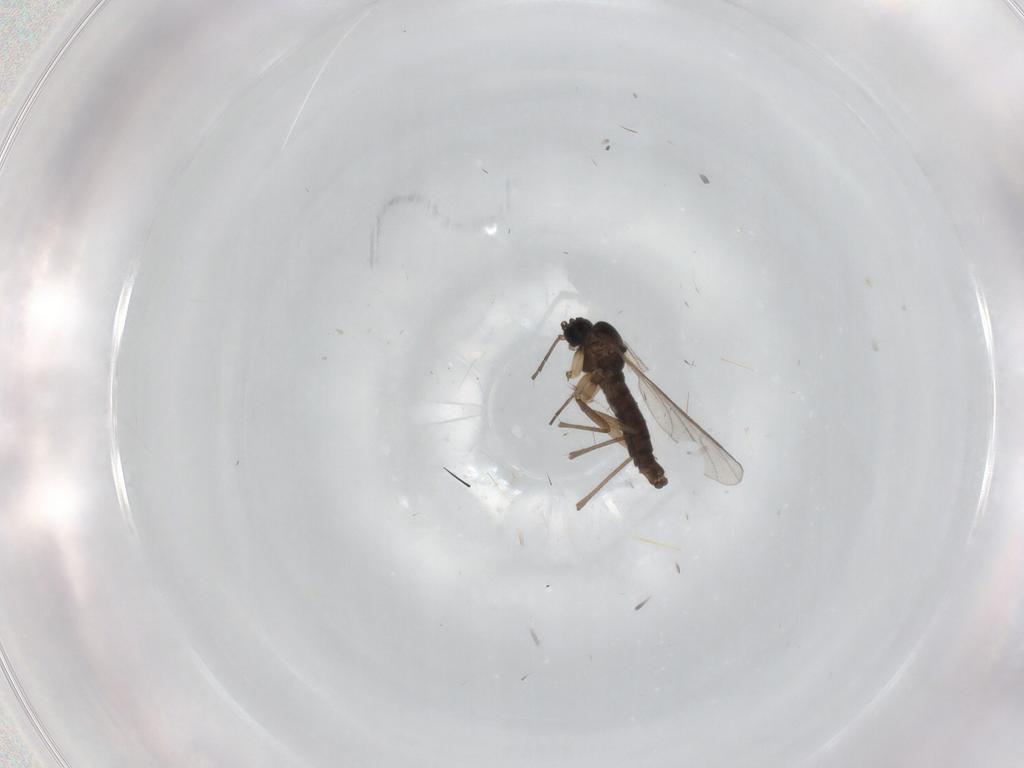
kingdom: Animalia
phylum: Arthropoda
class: Insecta
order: Diptera
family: Sciaridae
